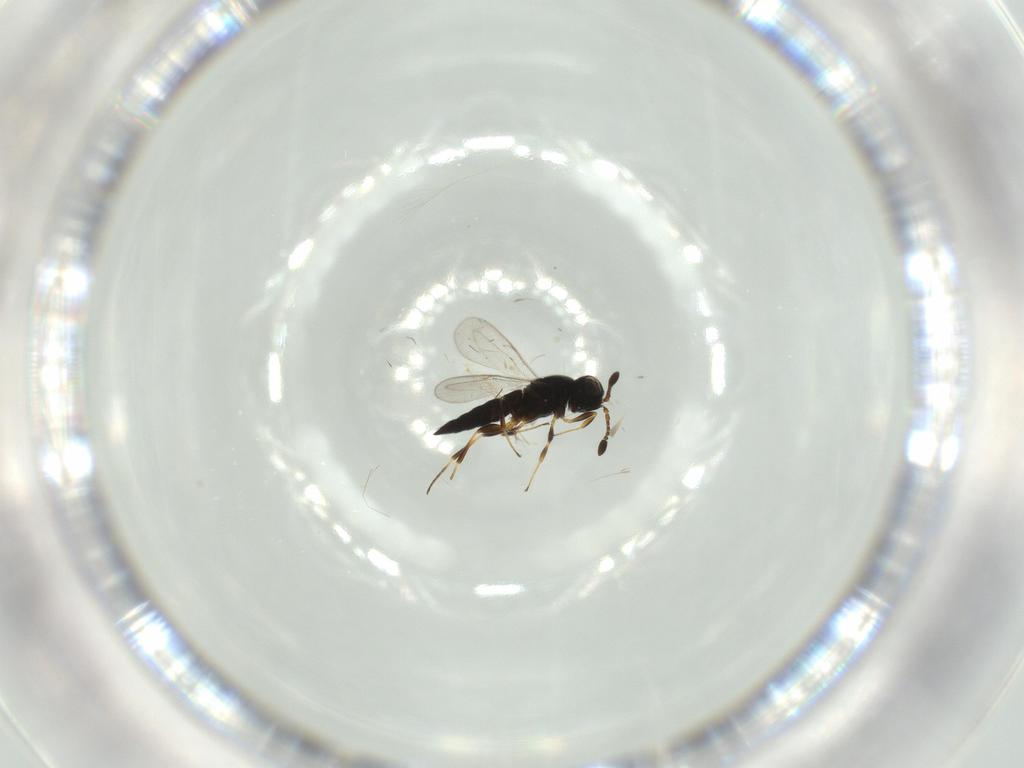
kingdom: Animalia
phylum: Arthropoda
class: Insecta
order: Hymenoptera
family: Scelionidae
